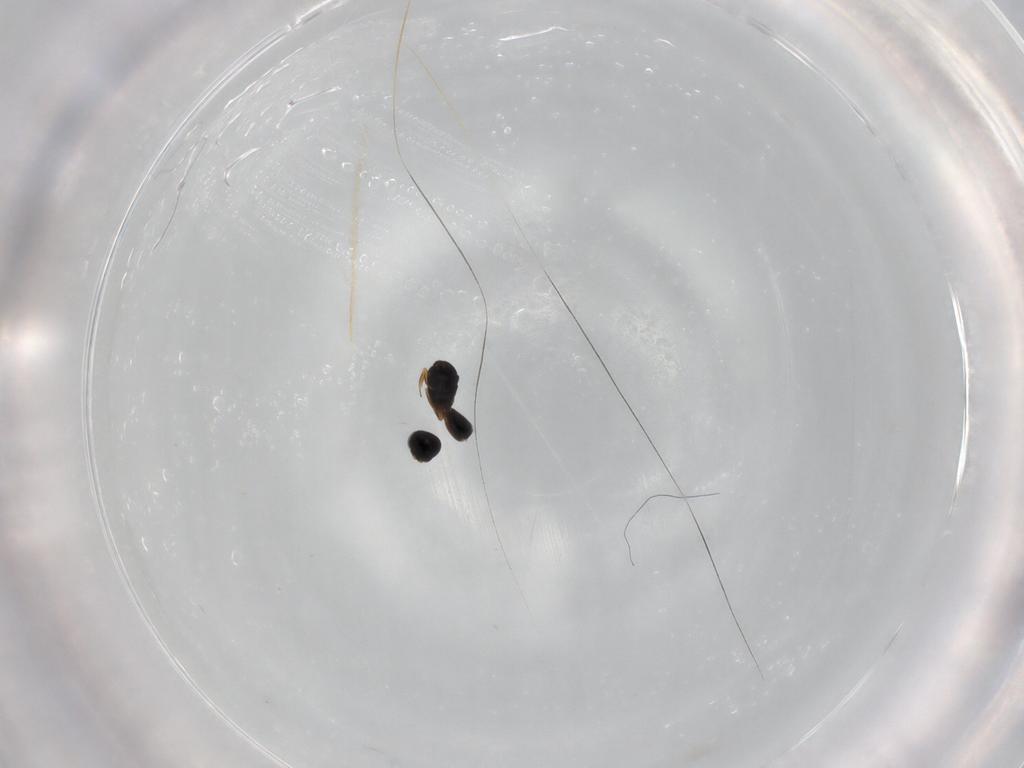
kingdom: Animalia
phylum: Arthropoda
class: Insecta
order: Hymenoptera
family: Scelionidae
